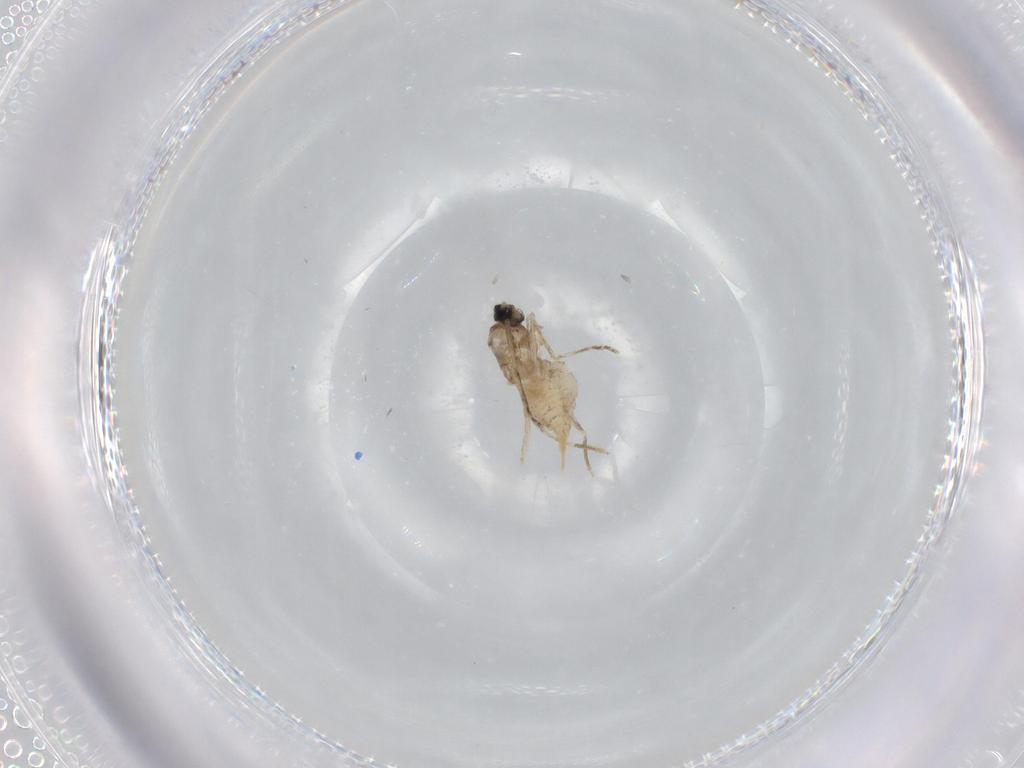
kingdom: Animalia
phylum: Arthropoda
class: Insecta
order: Diptera
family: Cecidomyiidae
